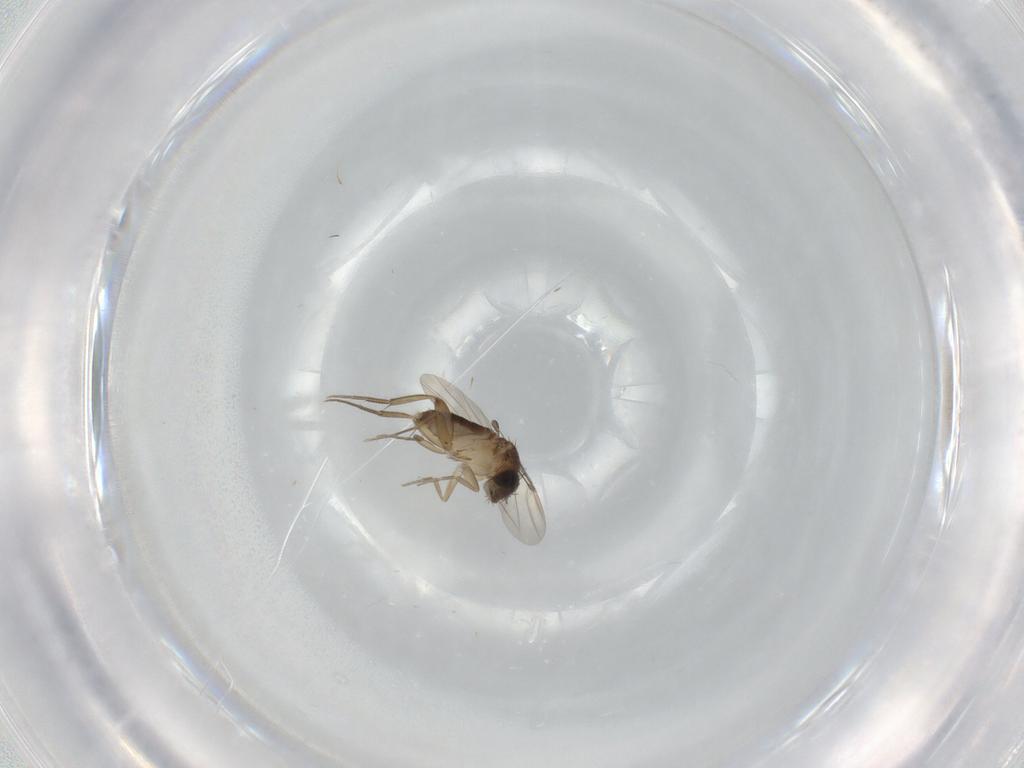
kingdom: Animalia
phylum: Arthropoda
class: Insecta
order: Diptera
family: Phoridae
